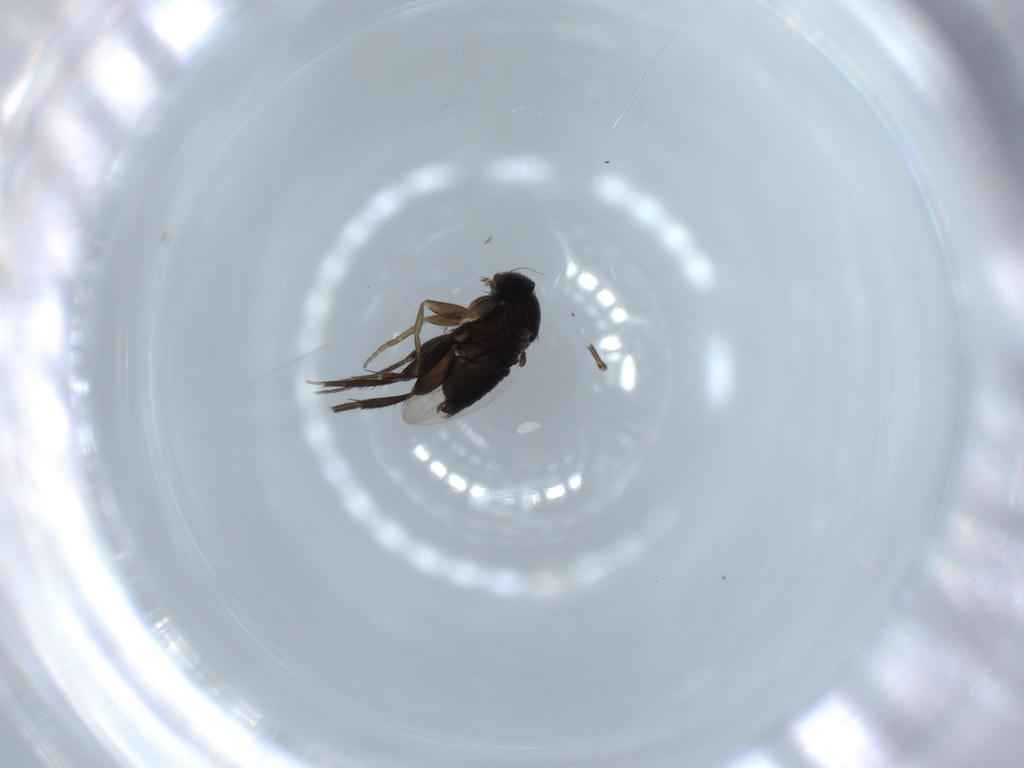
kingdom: Animalia
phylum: Arthropoda
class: Insecta
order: Diptera
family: Phoridae
